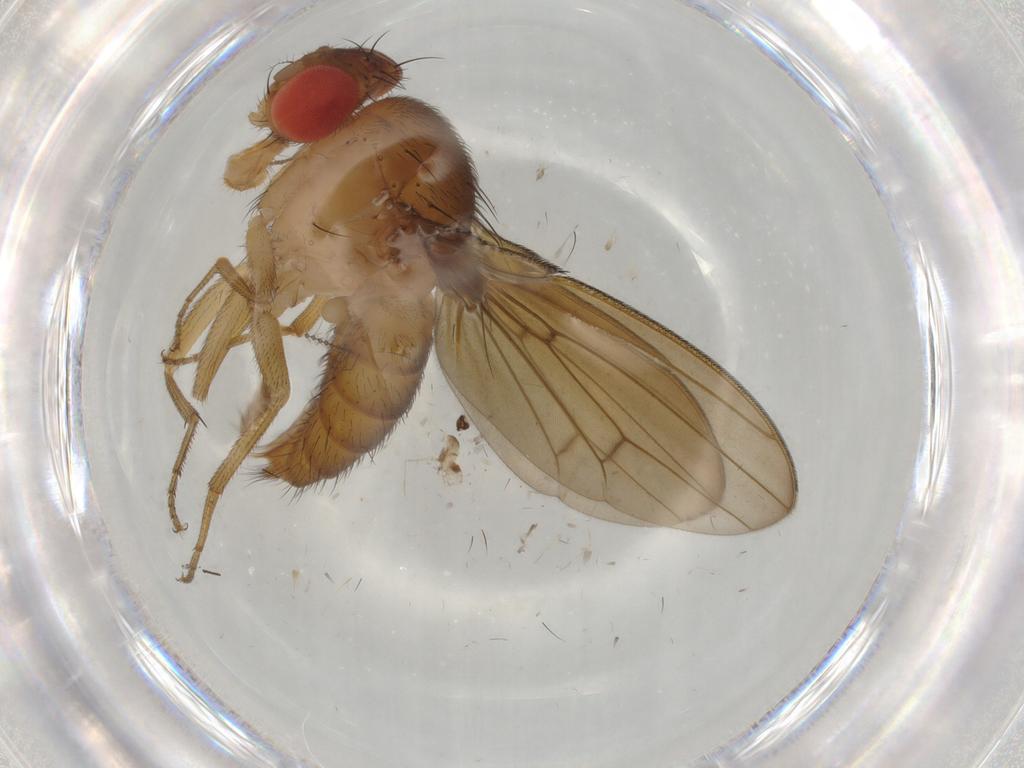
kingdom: Animalia
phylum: Arthropoda
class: Insecta
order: Diptera
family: Drosophilidae
